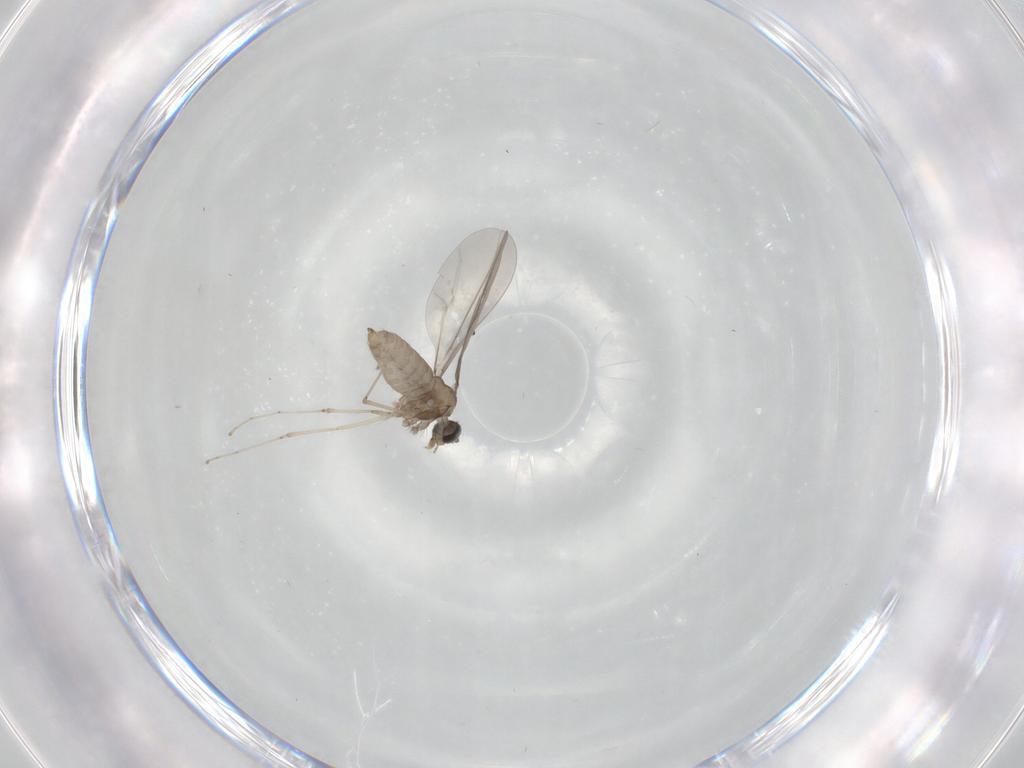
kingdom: Animalia
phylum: Arthropoda
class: Insecta
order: Diptera
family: Cecidomyiidae
